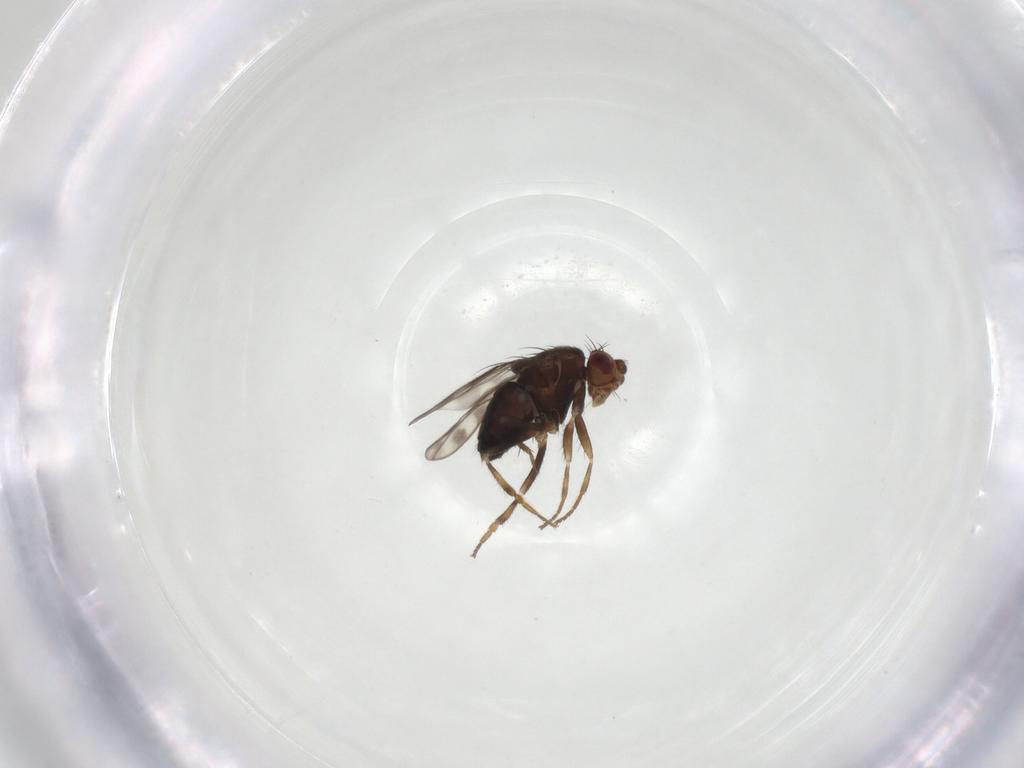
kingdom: Animalia
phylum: Arthropoda
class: Insecta
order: Diptera
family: Sphaeroceridae
